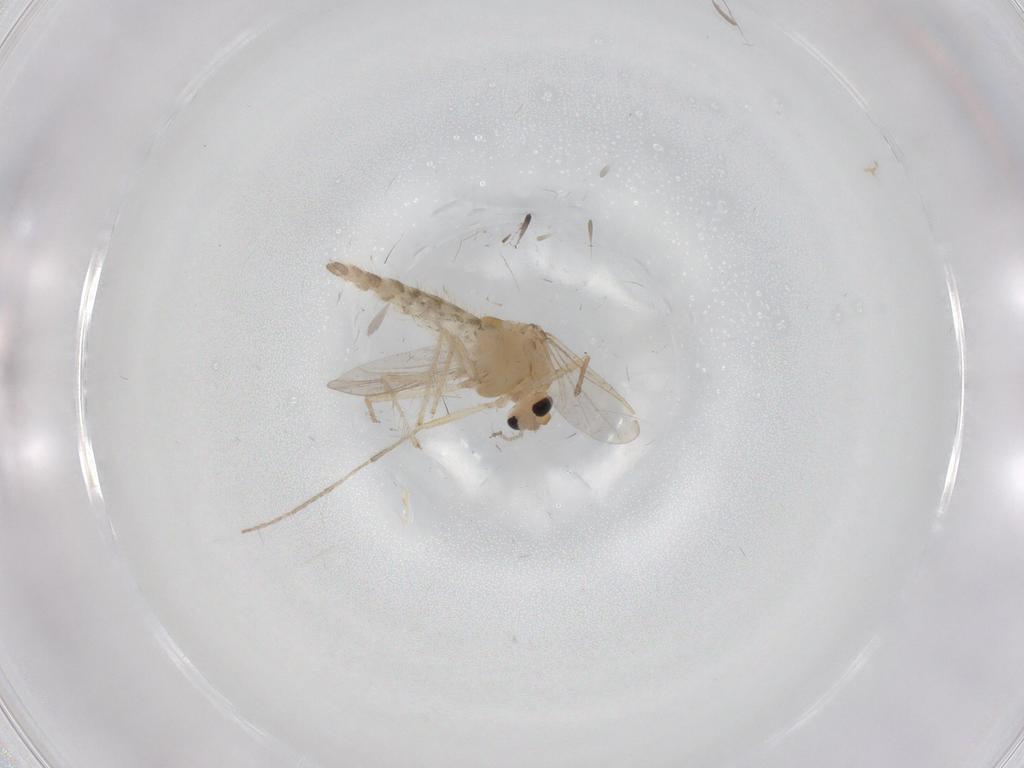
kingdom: Animalia
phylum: Arthropoda
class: Insecta
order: Diptera
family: Chironomidae
